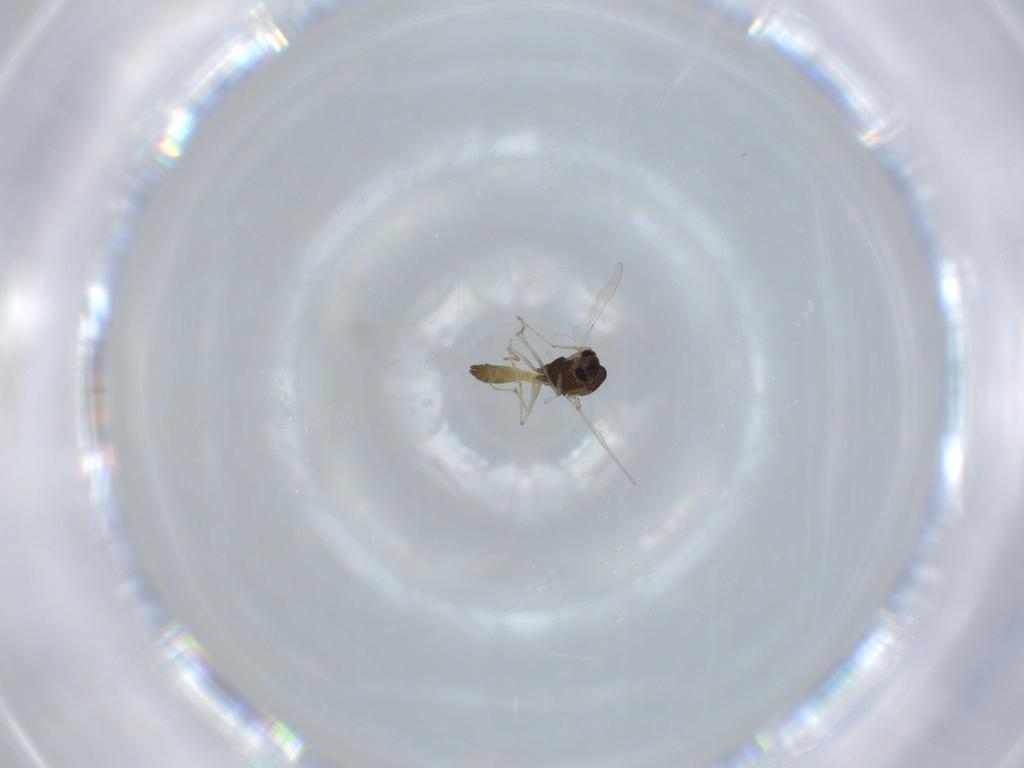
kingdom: Animalia
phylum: Arthropoda
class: Insecta
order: Diptera
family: Chironomidae
